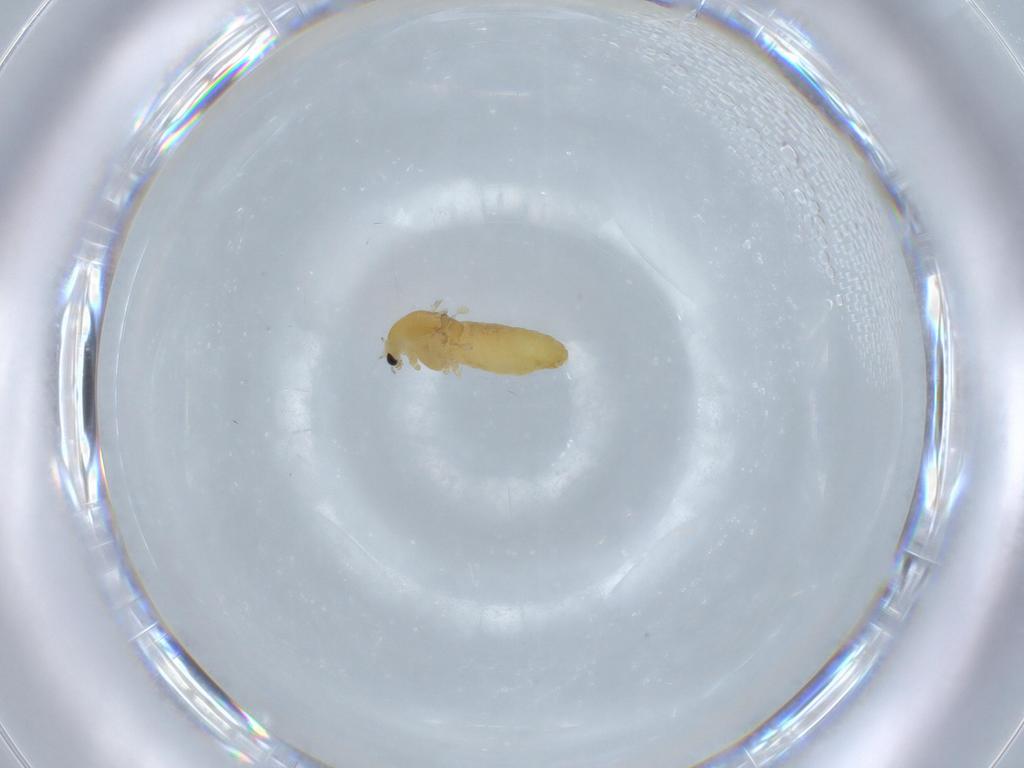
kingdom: Animalia
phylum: Arthropoda
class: Insecta
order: Diptera
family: Chironomidae
